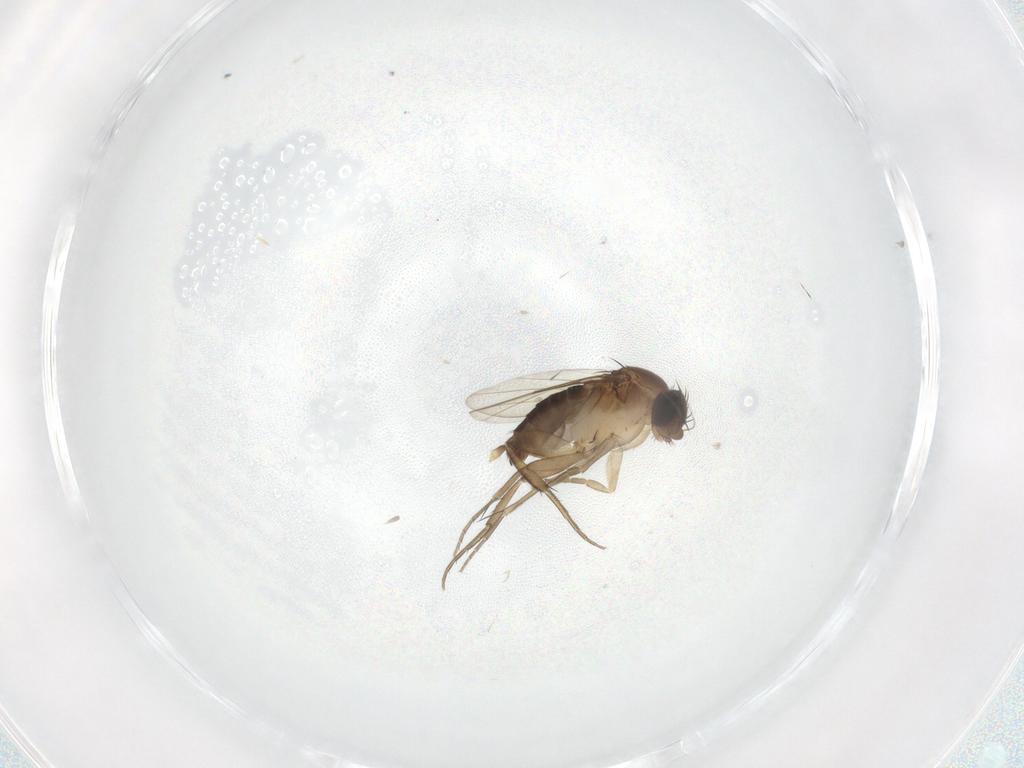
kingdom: Animalia
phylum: Arthropoda
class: Insecta
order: Diptera
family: Phoridae
